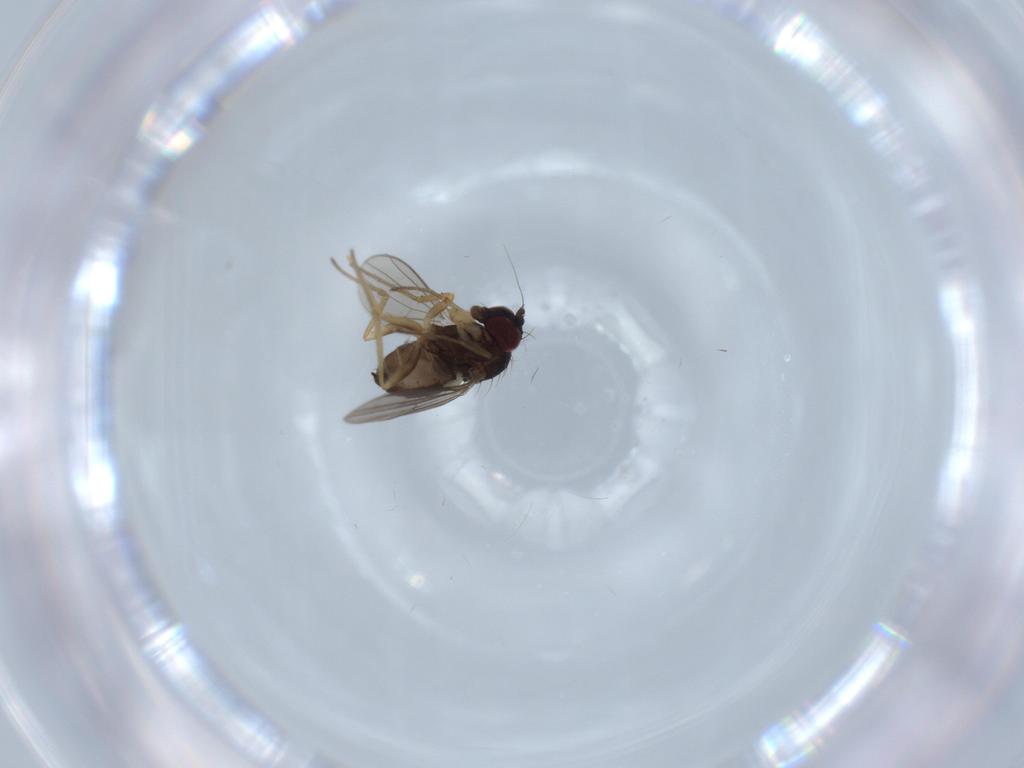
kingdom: Animalia
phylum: Arthropoda
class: Insecta
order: Diptera
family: Dolichopodidae
